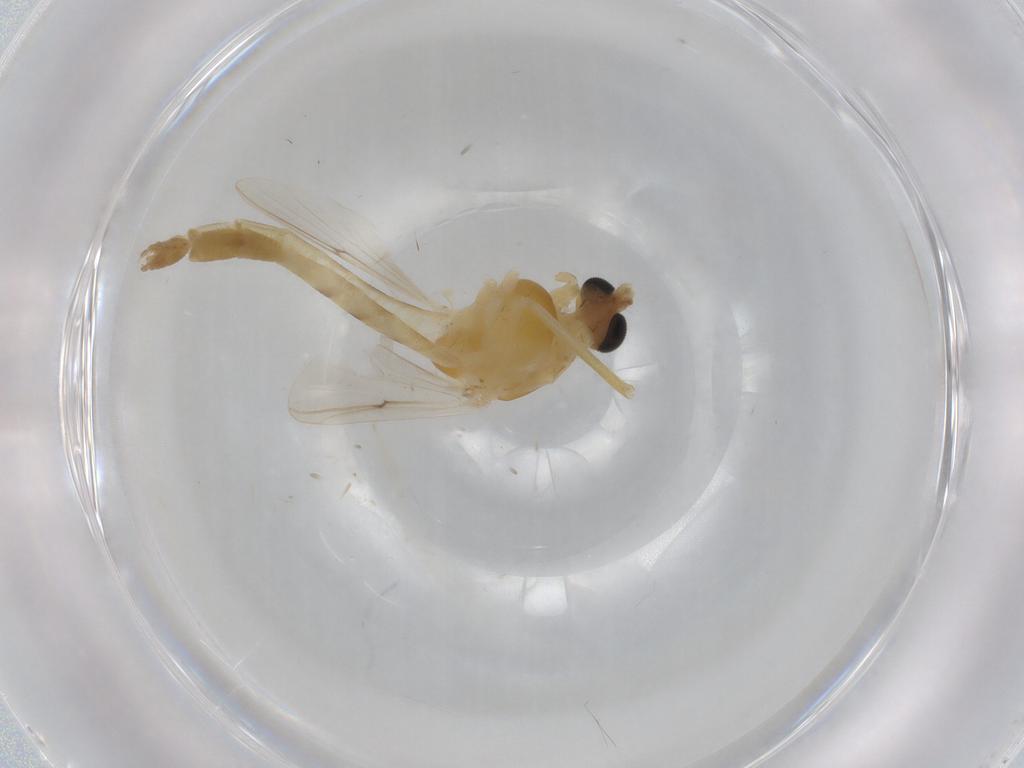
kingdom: Animalia
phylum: Arthropoda
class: Insecta
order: Diptera
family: Chironomidae
